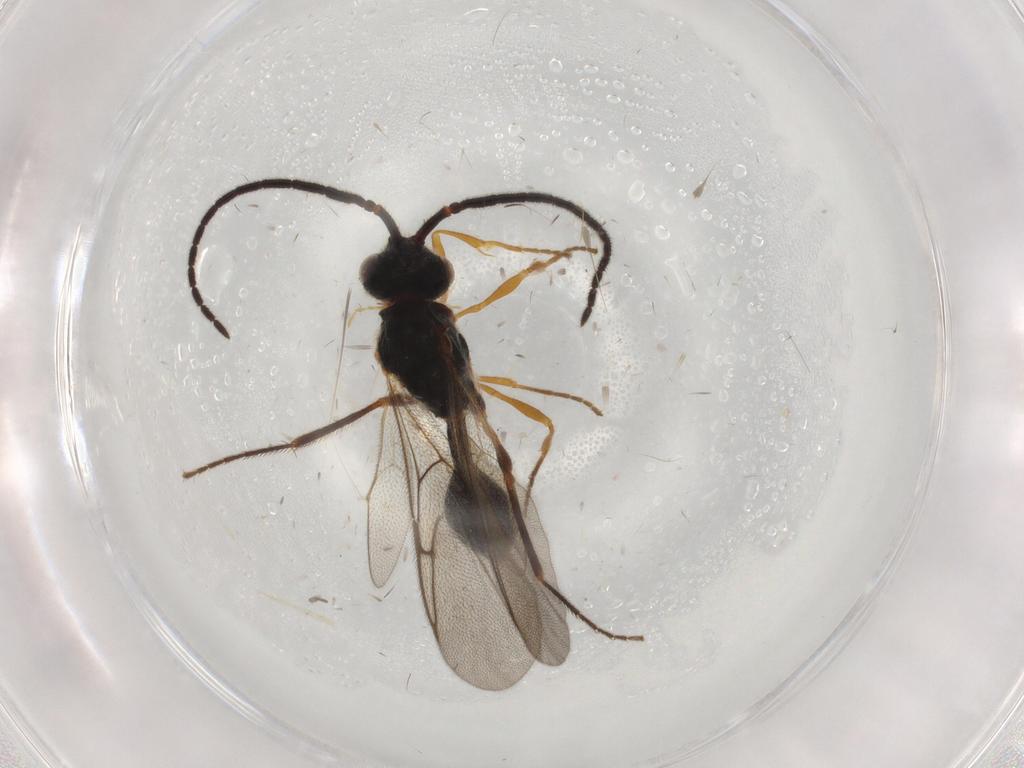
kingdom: Animalia
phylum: Arthropoda
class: Insecta
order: Hymenoptera
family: Diapriidae
